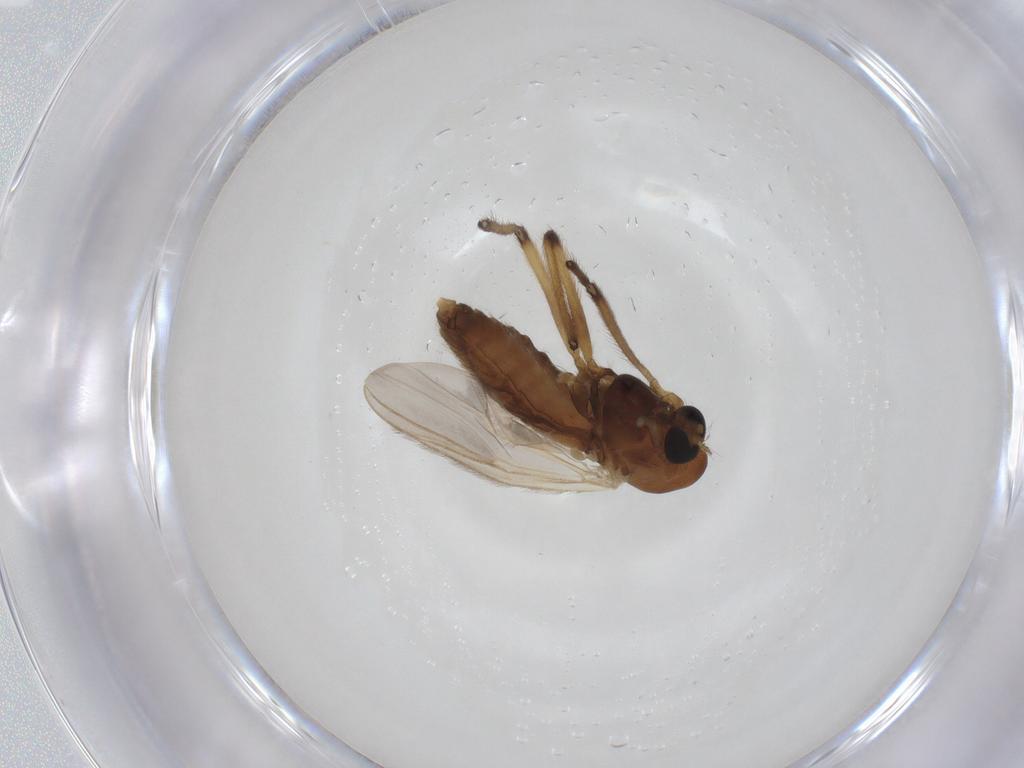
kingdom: Animalia
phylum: Arthropoda
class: Insecta
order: Diptera
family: Chironomidae
